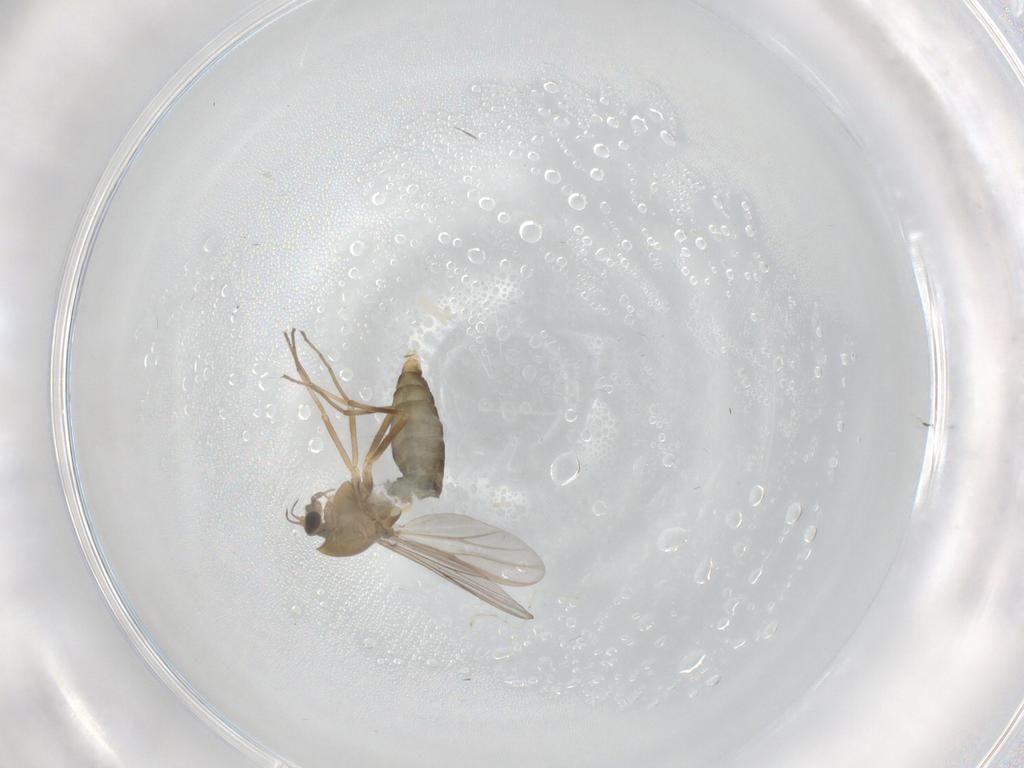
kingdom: Animalia
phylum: Arthropoda
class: Insecta
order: Diptera
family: Chironomidae
